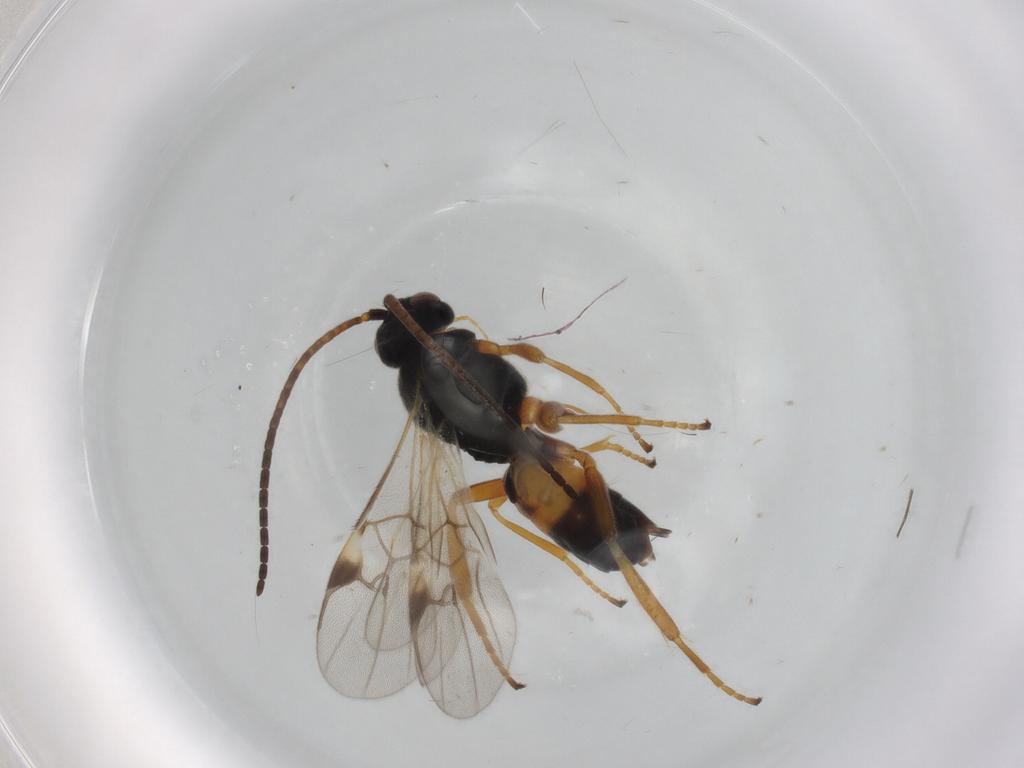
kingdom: Animalia
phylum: Arthropoda
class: Insecta
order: Hymenoptera
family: Braconidae
